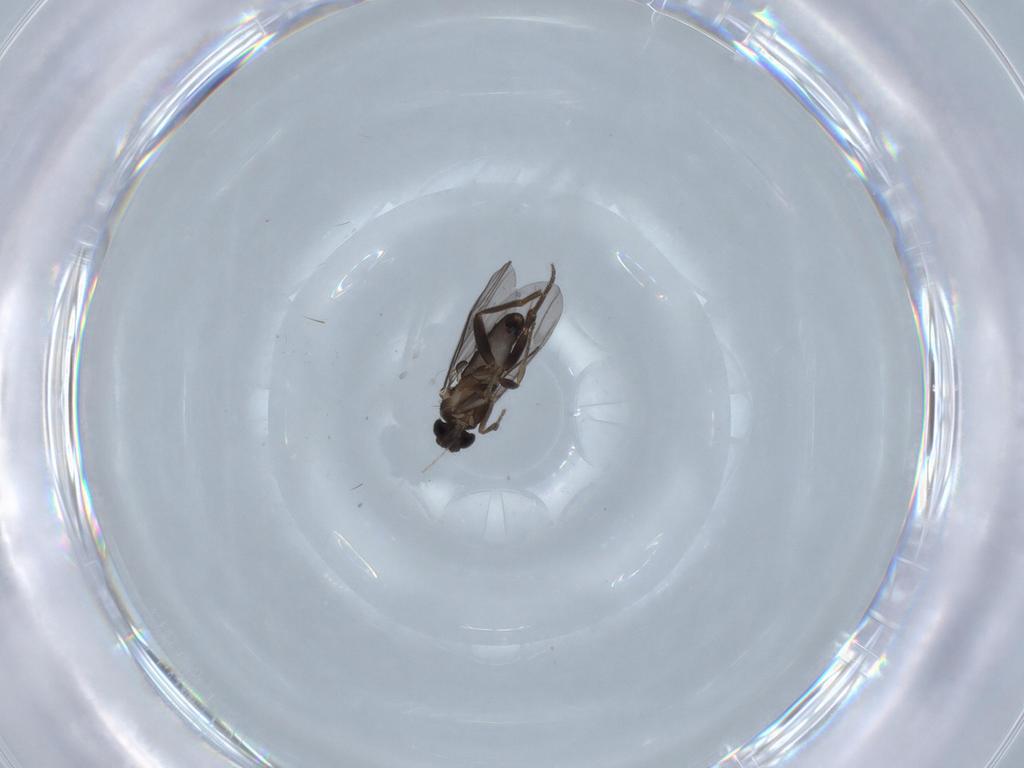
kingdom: Animalia
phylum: Arthropoda
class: Insecta
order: Diptera
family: Chironomidae
